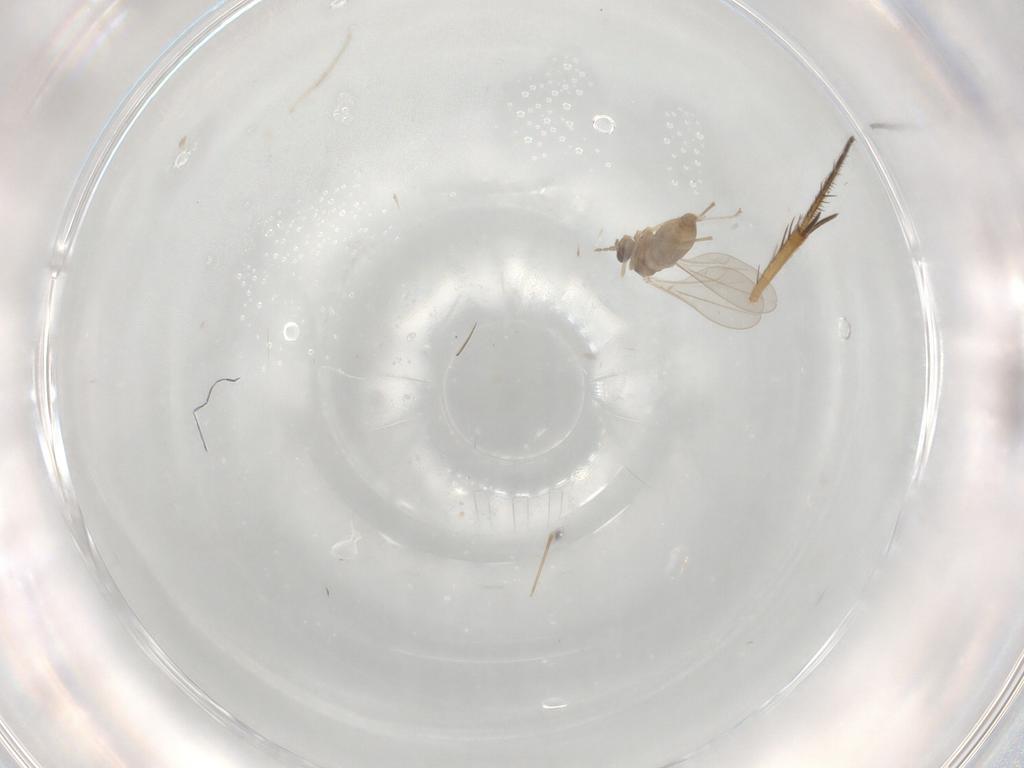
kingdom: Animalia
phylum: Arthropoda
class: Insecta
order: Diptera
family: Cecidomyiidae
